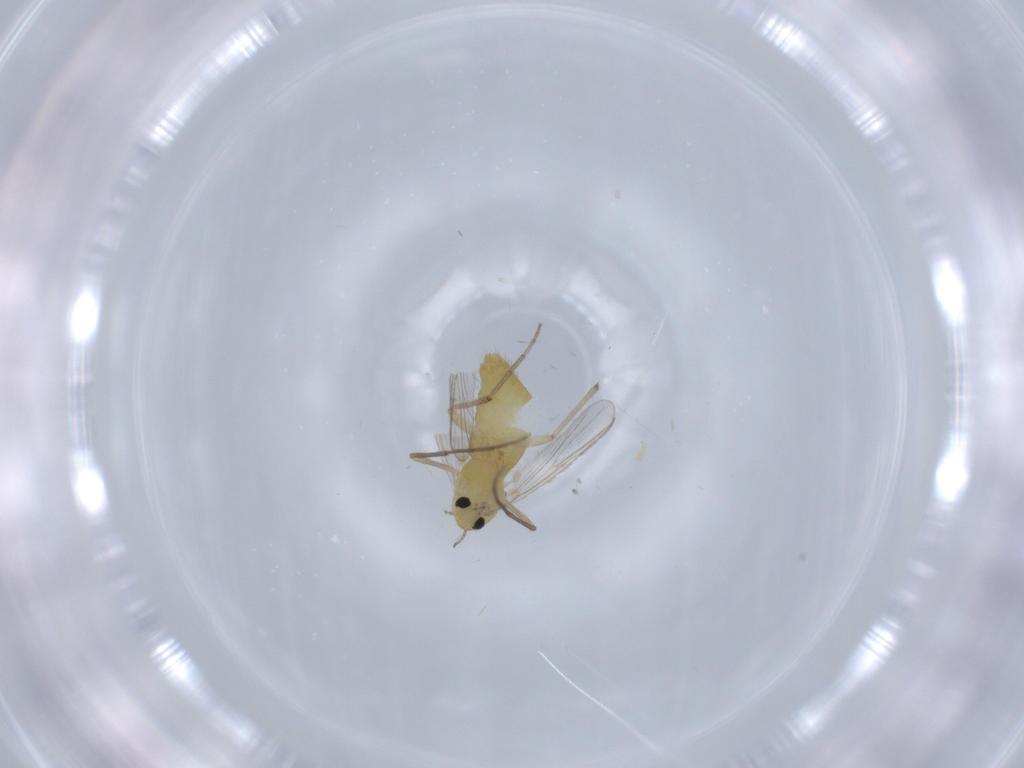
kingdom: Animalia
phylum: Arthropoda
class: Insecta
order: Diptera
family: Chironomidae
